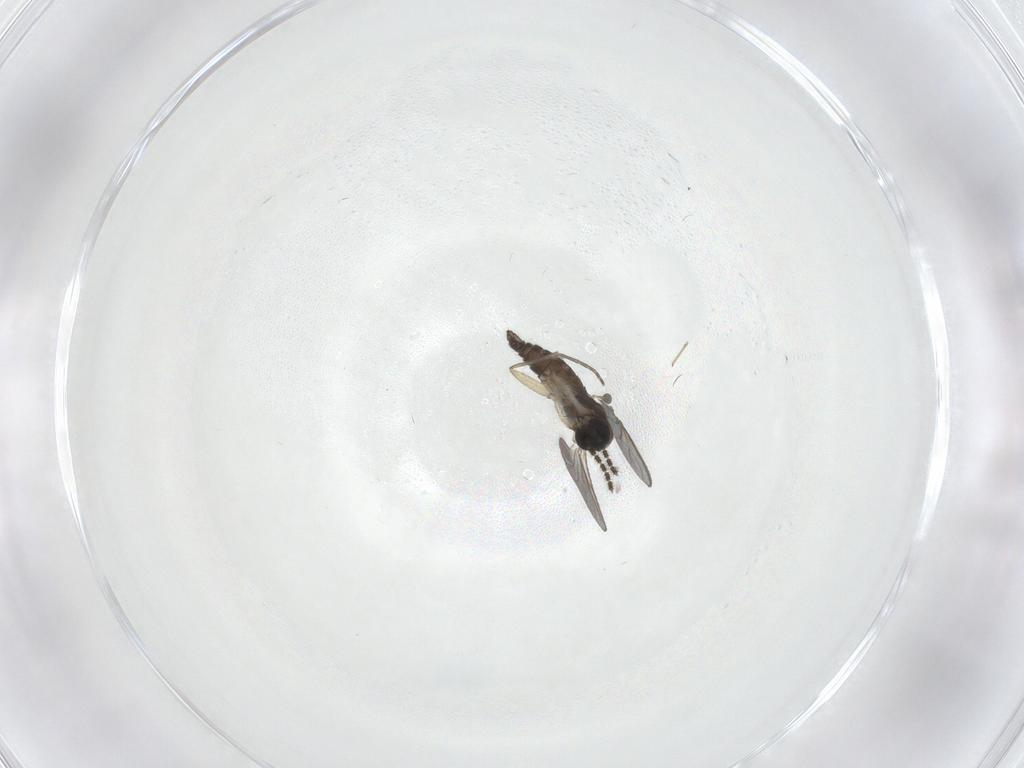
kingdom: Animalia
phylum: Arthropoda
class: Insecta
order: Diptera
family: Sciaridae
